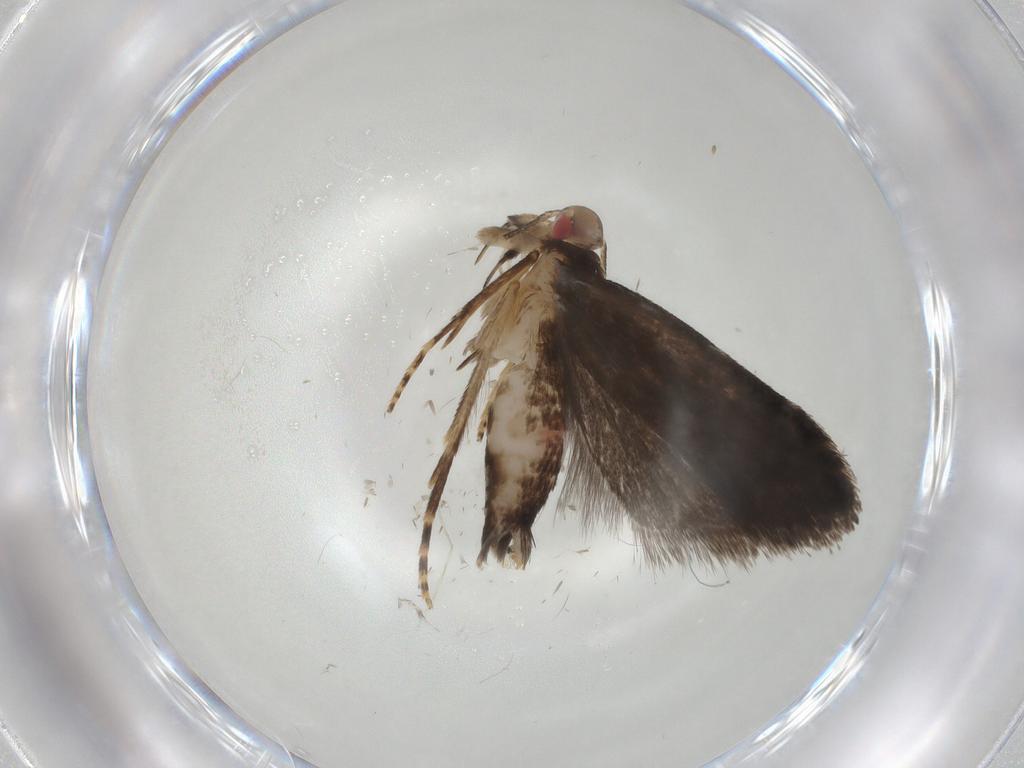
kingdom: Animalia
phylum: Arthropoda
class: Insecta
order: Lepidoptera
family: Gelechiidae
